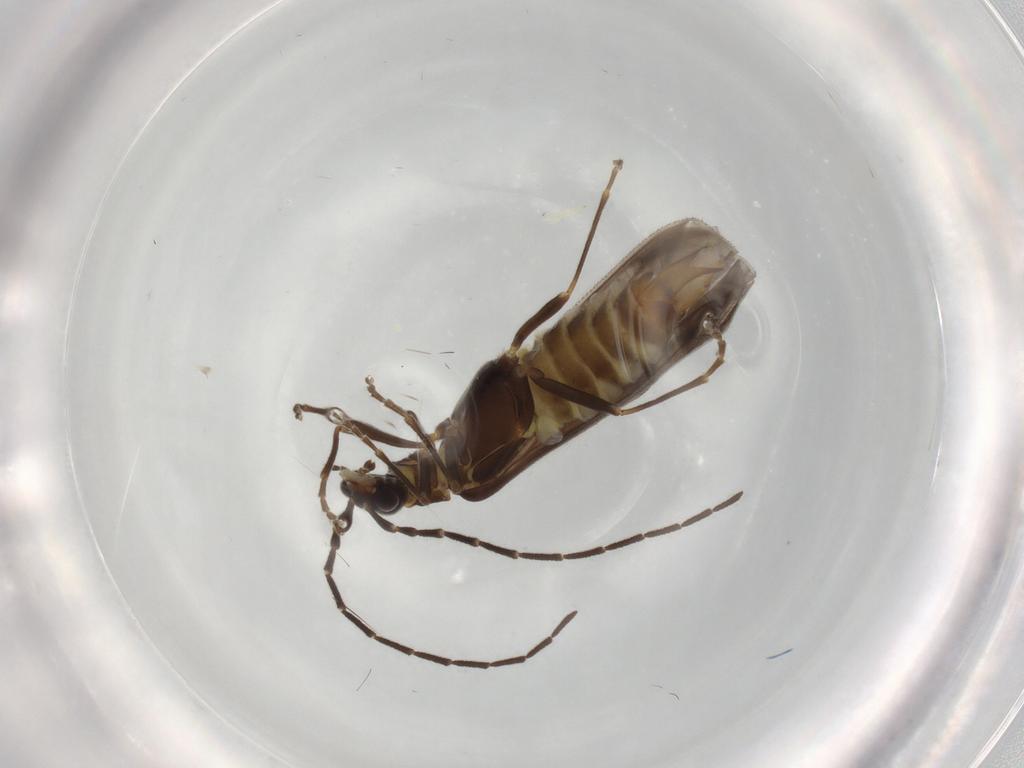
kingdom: Animalia
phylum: Arthropoda
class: Insecta
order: Coleoptera
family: Cantharidae
